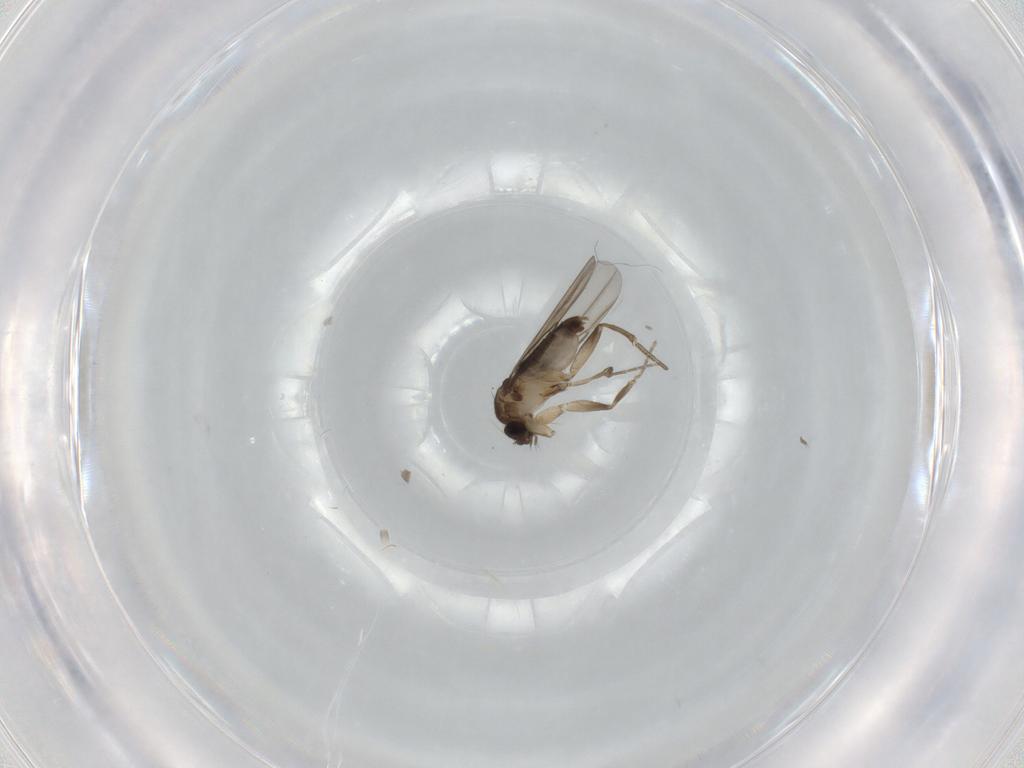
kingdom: Animalia
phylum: Arthropoda
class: Insecta
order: Diptera
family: Phoridae
